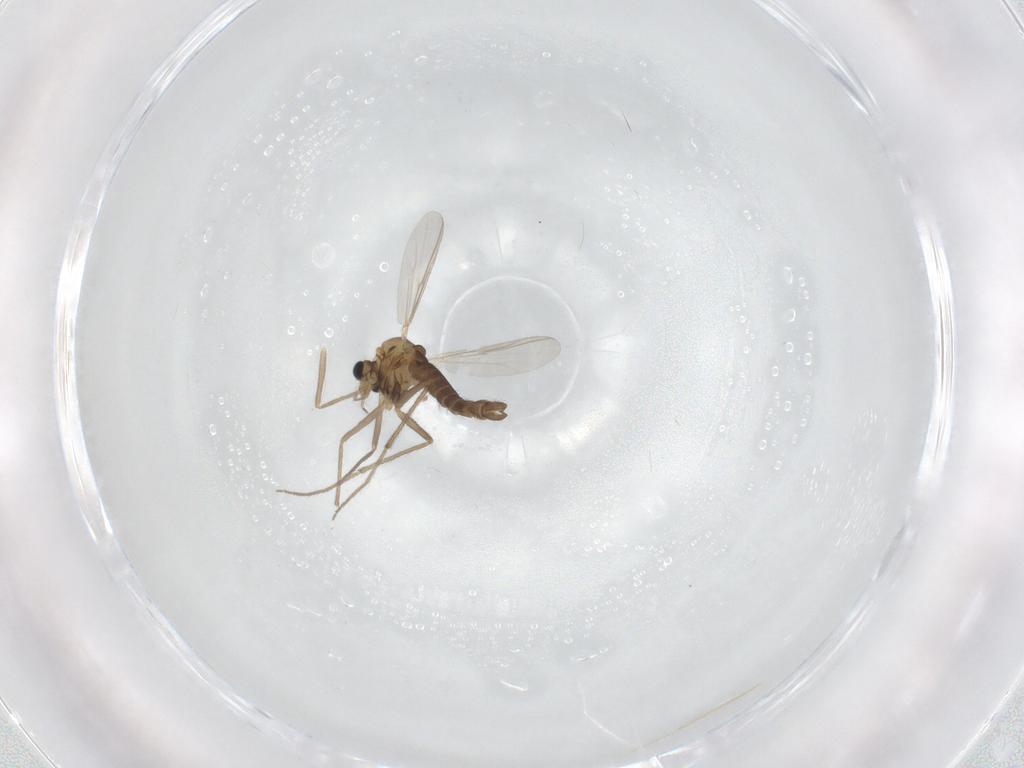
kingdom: Animalia
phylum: Arthropoda
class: Insecta
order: Diptera
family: Chironomidae
